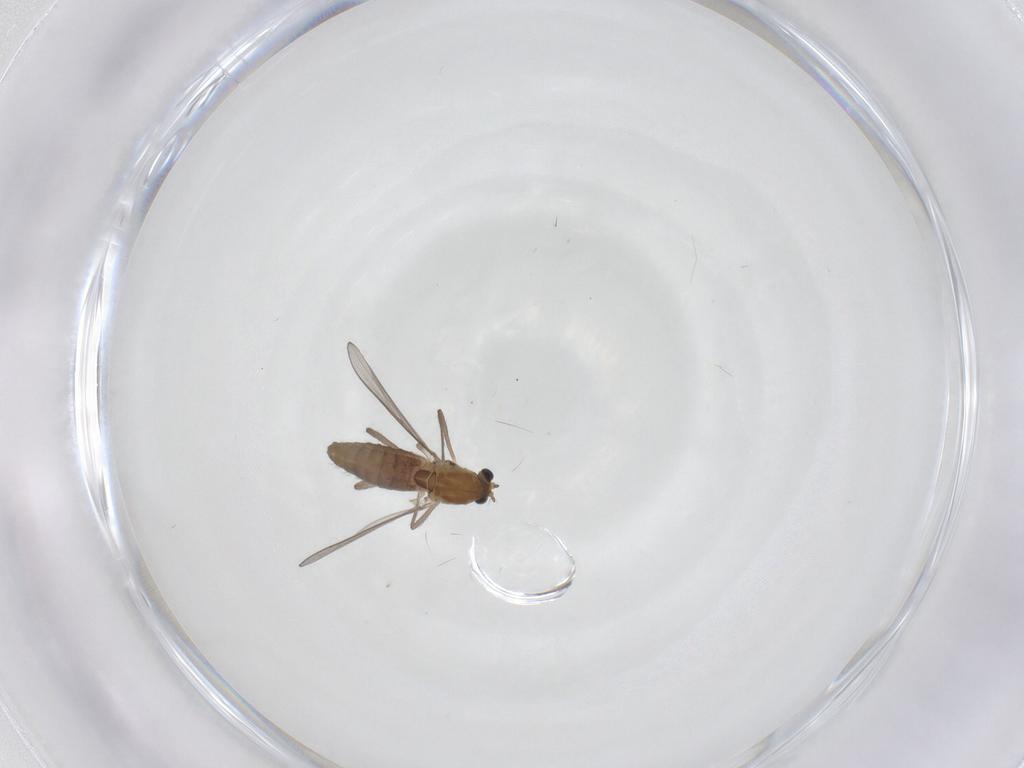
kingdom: Animalia
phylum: Arthropoda
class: Insecta
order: Diptera
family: Chironomidae
